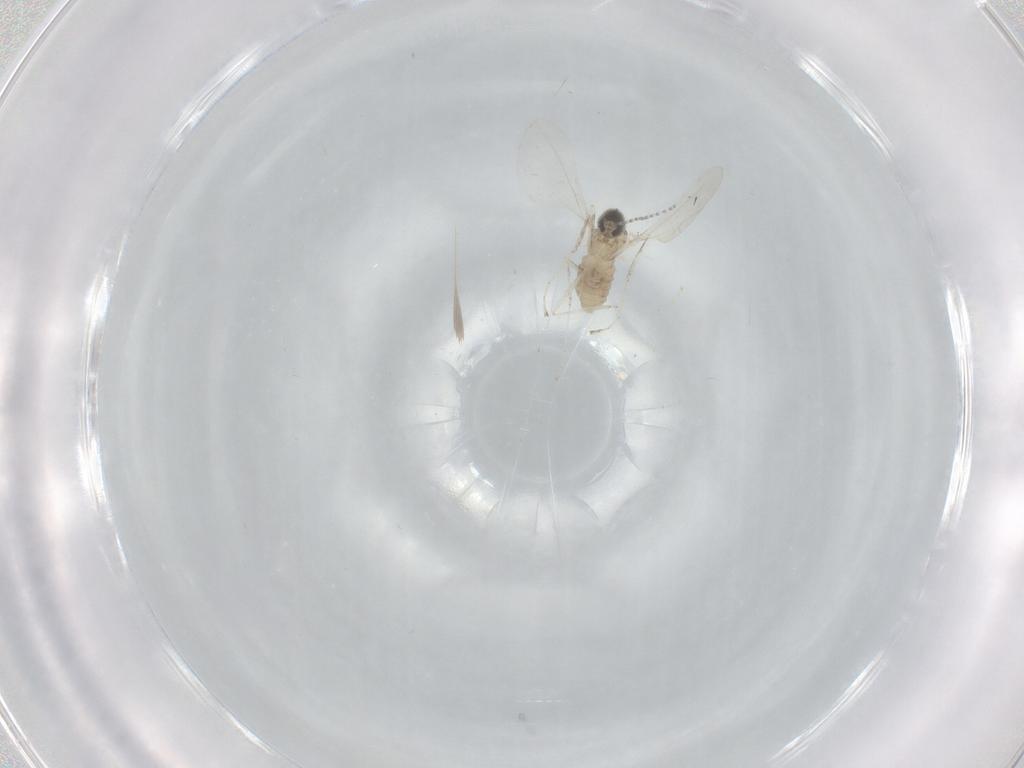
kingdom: Animalia
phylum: Arthropoda
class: Insecta
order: Diptera
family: Cecidomyiidae
